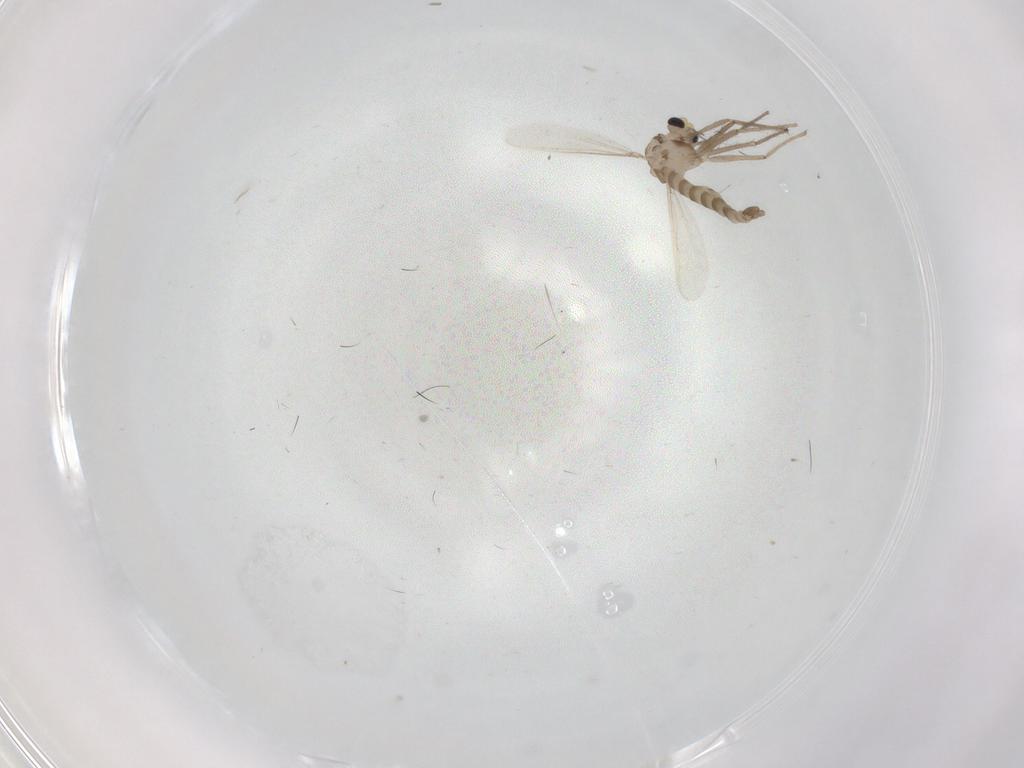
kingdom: Animalia
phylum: Arthropoda
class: Insecta
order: Diptera
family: Chironomidae
